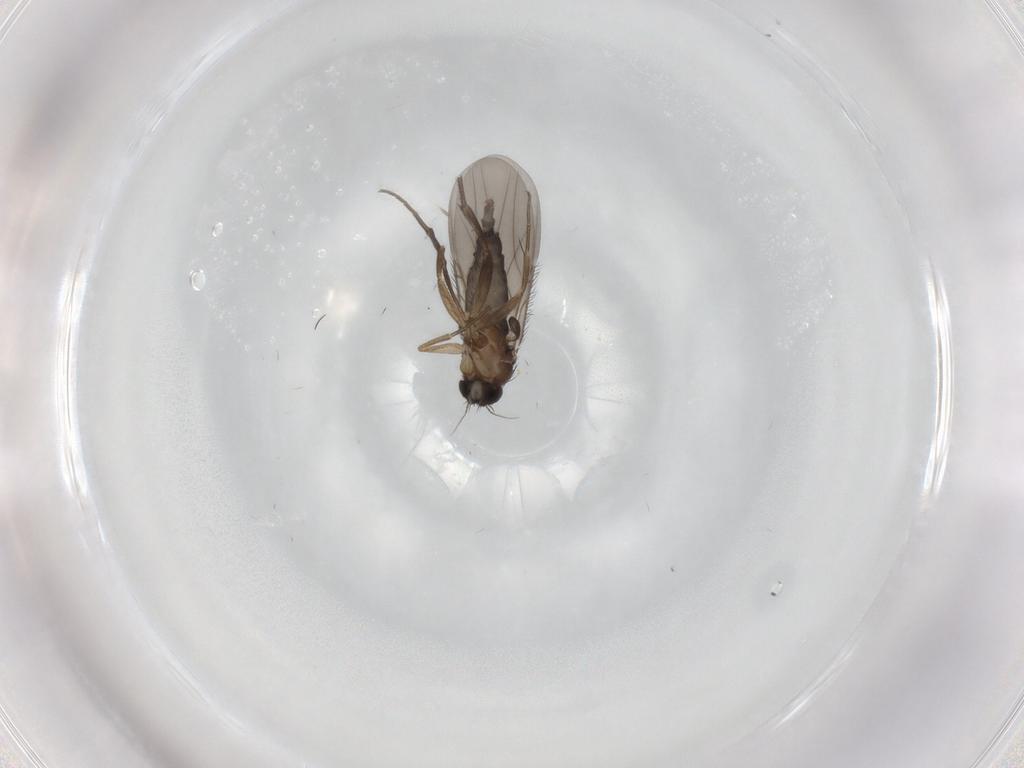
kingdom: Animalia
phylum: Arthropoda
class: Insecta
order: Diptera
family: Phoridae
